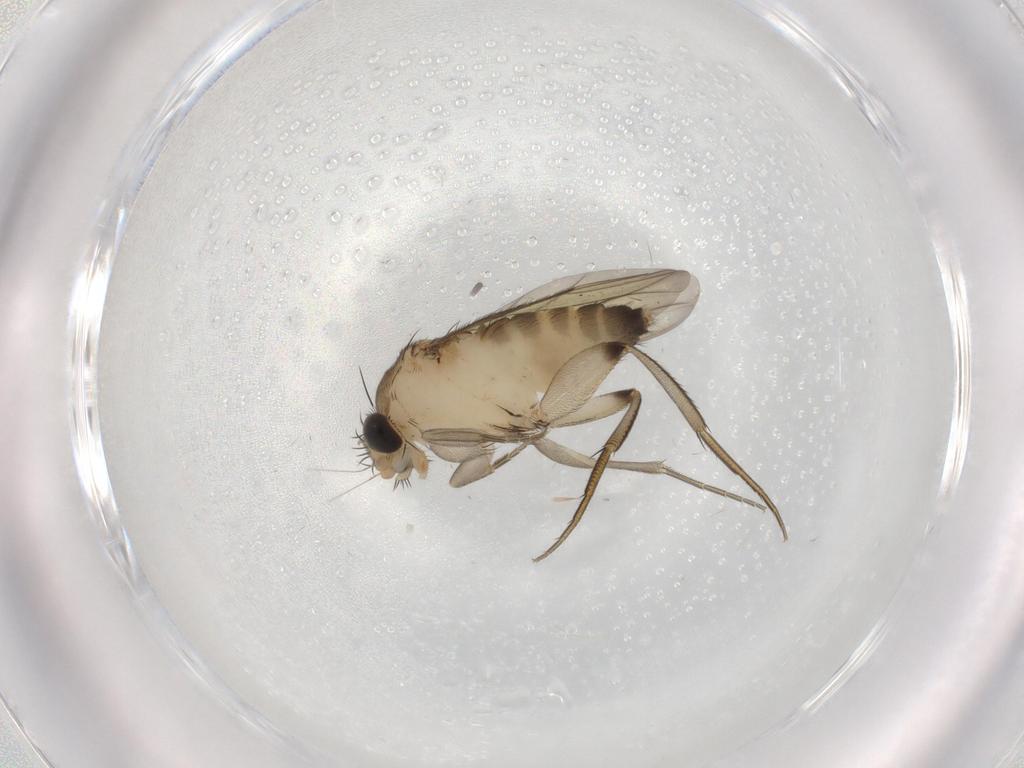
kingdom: Animalia
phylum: Arthropoda
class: Insecta
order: Diptera
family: Phoridae
